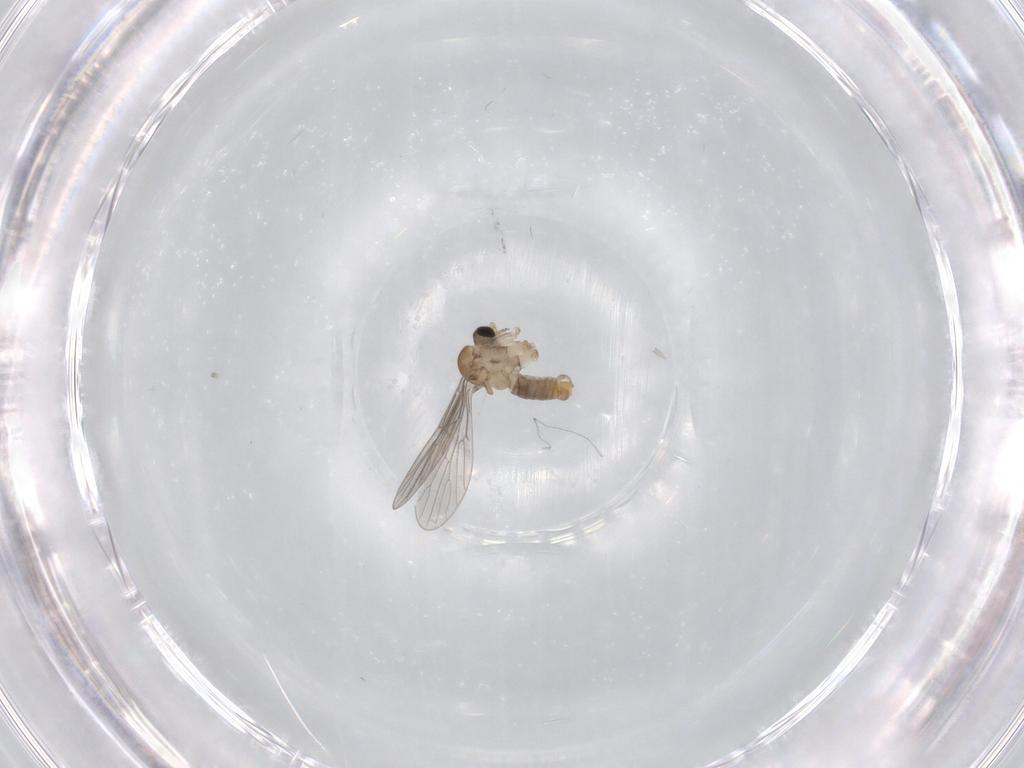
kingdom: Animalia
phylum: Arthropoda
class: Insecta
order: Diptera
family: Psychodidae
